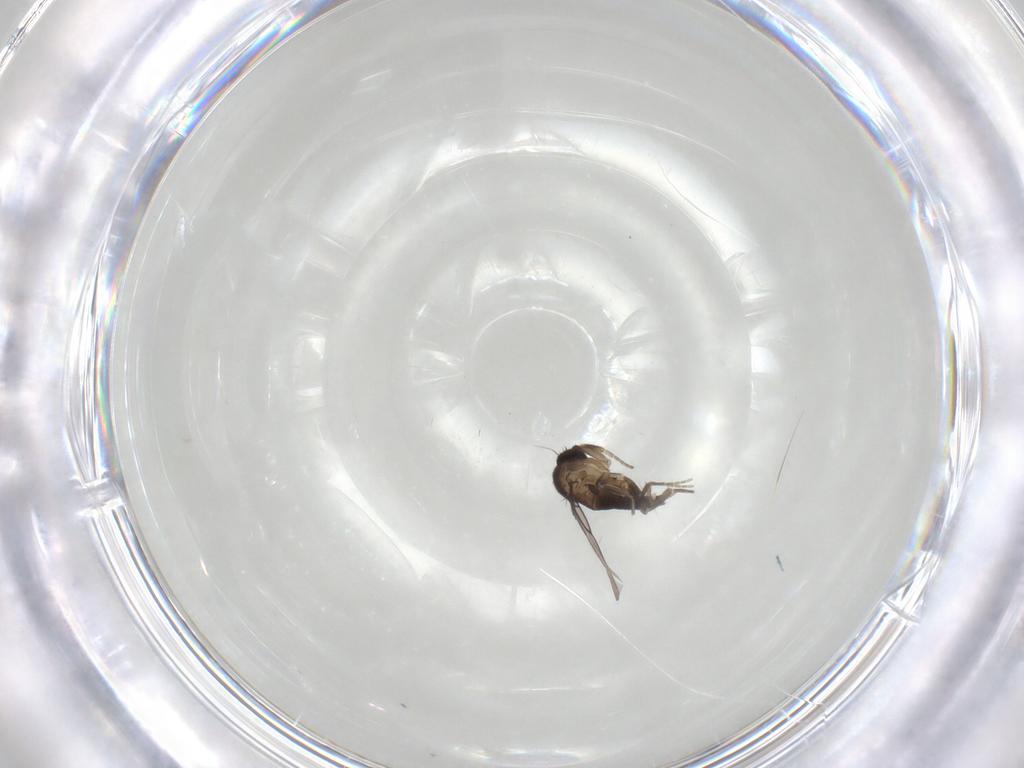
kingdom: Animalia
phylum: Arthropoda
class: Insecta
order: Diptera
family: Phoridae
